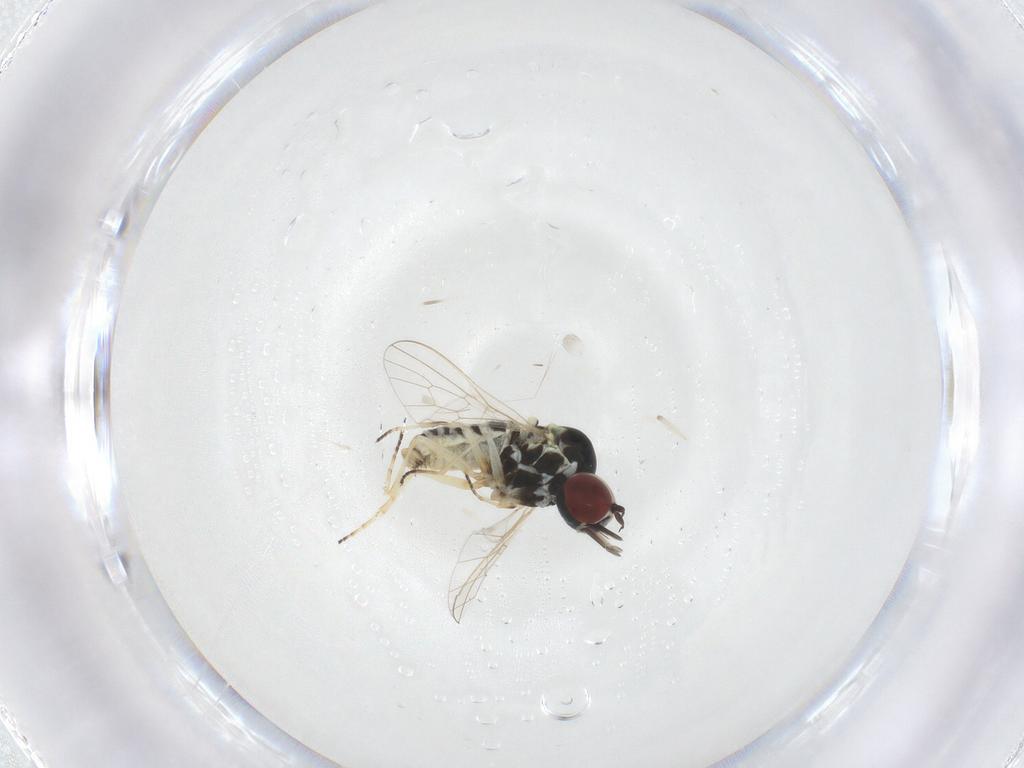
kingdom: Animalia
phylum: Arthropoda
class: Insecta
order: Diptera
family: Mythicomyiidae
